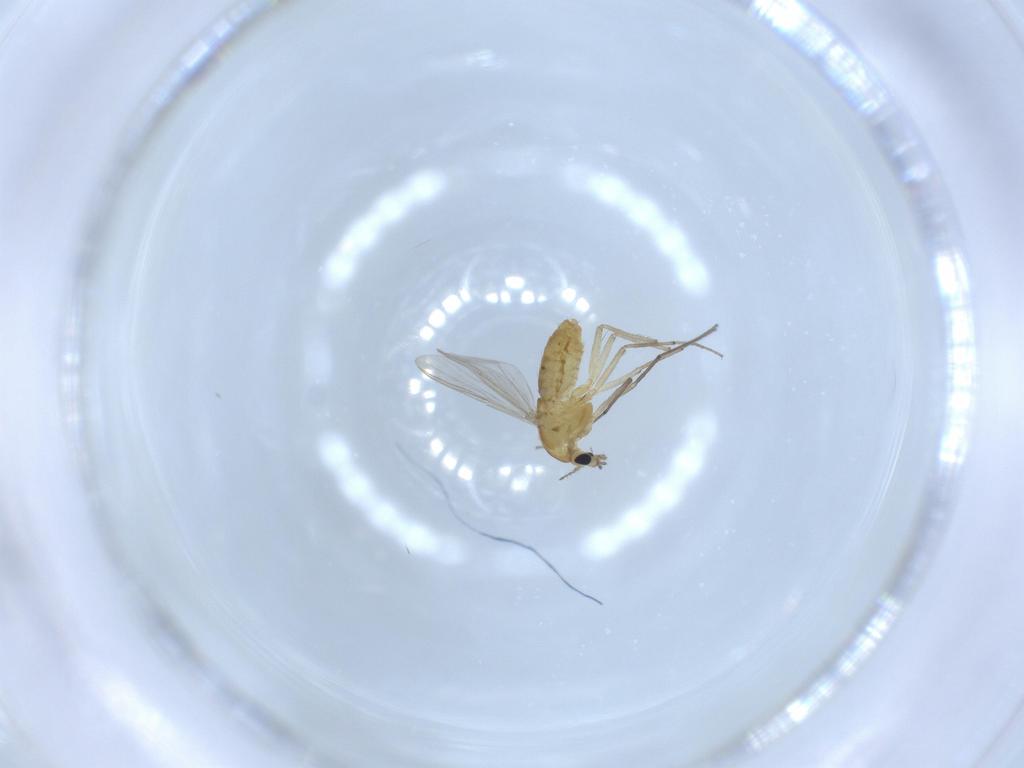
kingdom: Animalia
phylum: Arthropoda
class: Insecta
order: Diptera
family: Chironomidae
